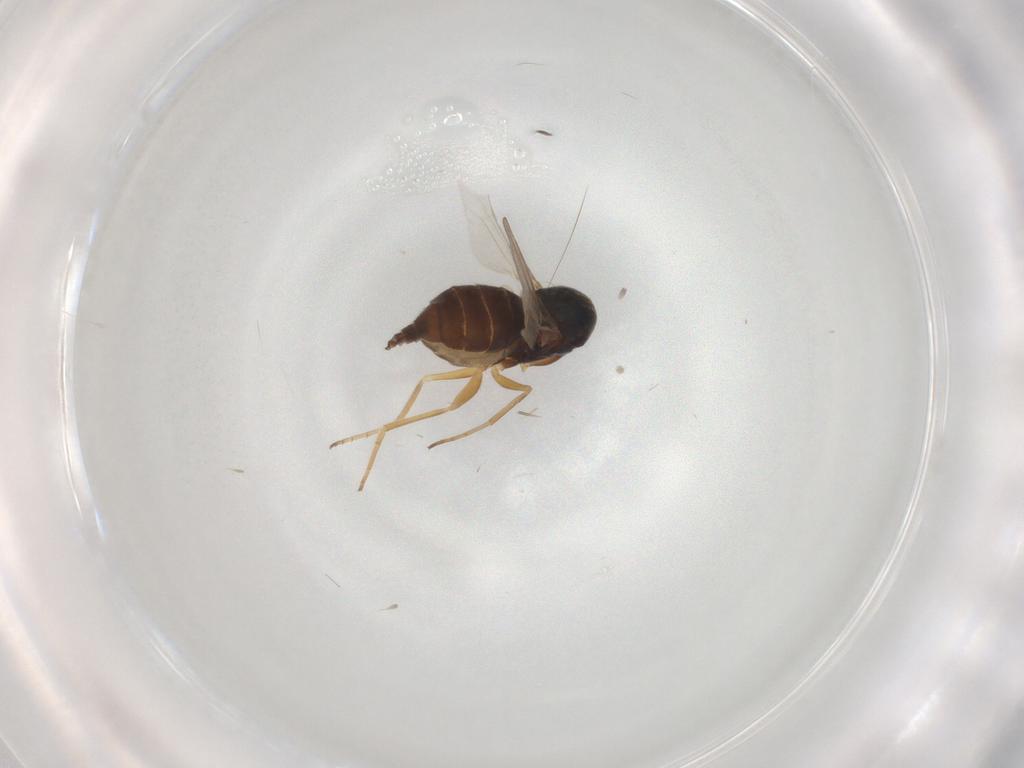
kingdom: Animalia
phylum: Arthropoda
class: Insecta
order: Diptera
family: Dolichopodidae
